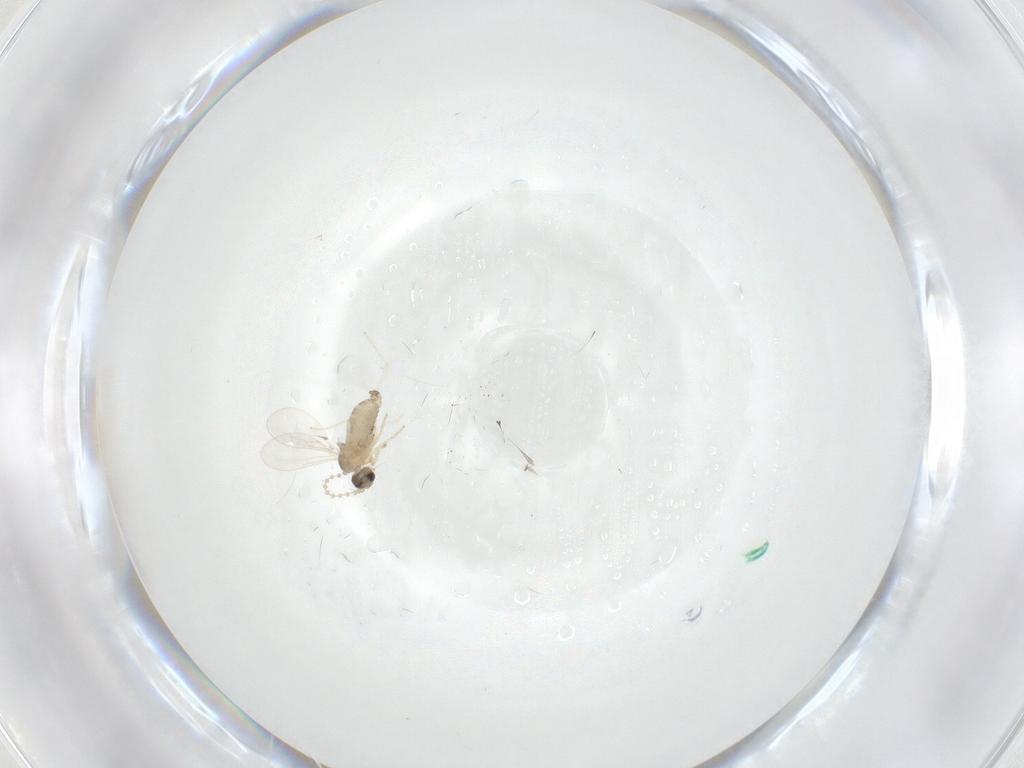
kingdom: Animalia
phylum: Arthropoda
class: Insecta
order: Diptera
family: Cecidomyiidae
